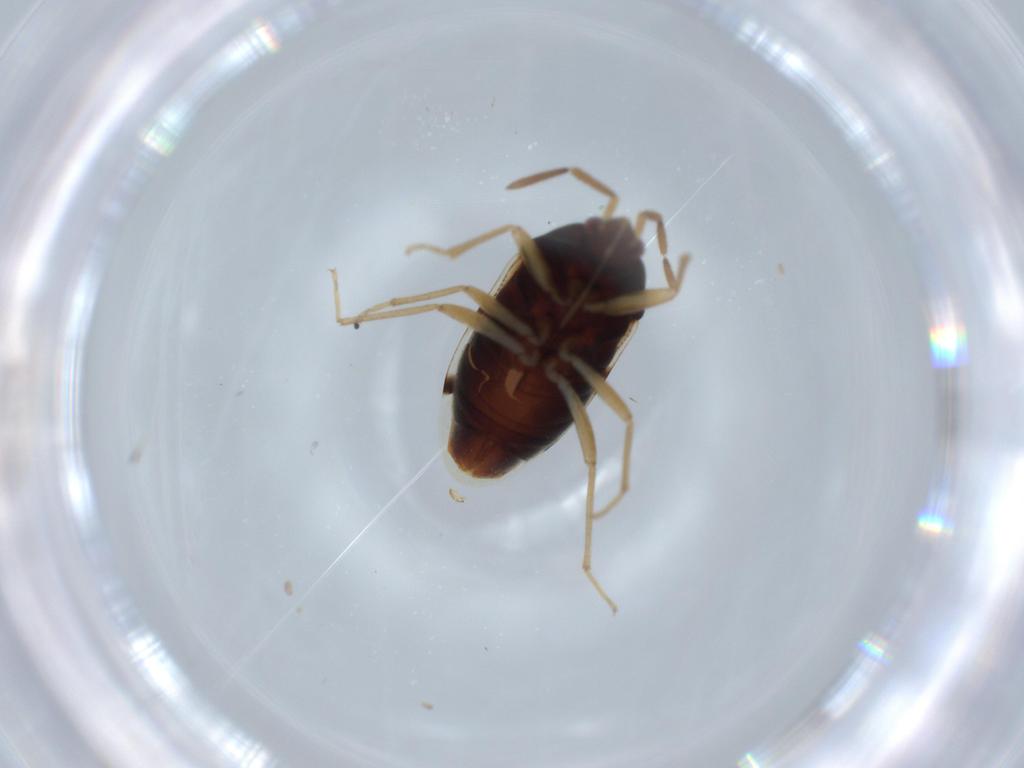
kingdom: Animalia
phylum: Arthropoda
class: Insecta
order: Hemiptera
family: Rhyparochromidae
